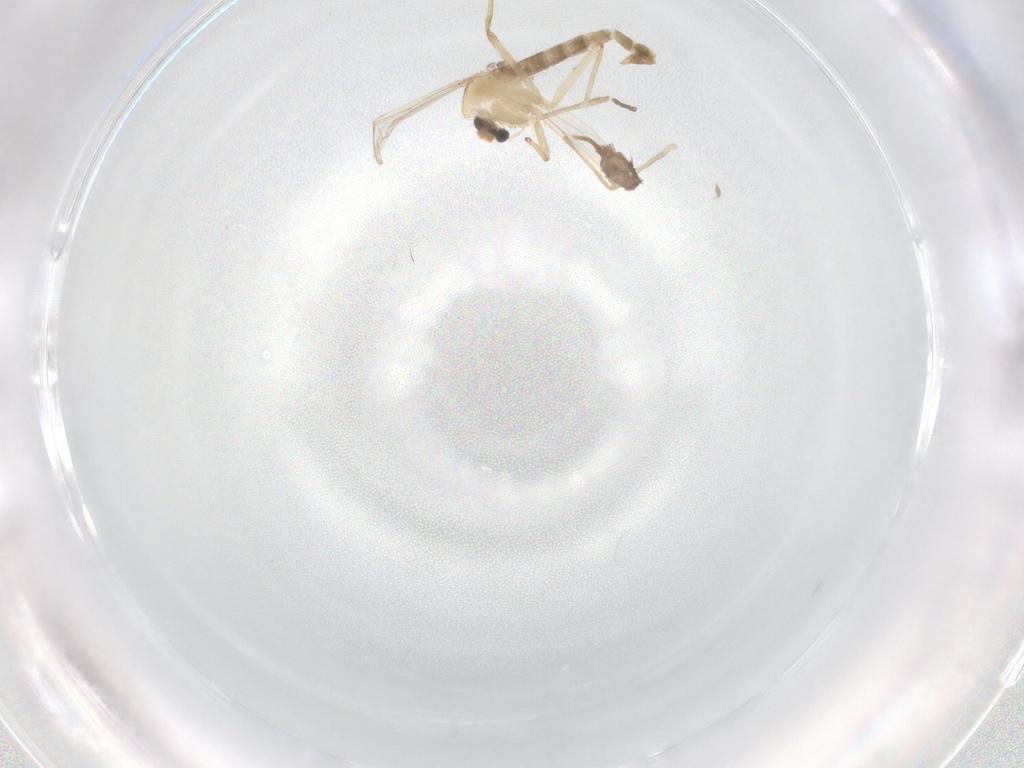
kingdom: Animalia
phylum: Arthropoda
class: Insecta
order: Diptera
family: Chironomidae
